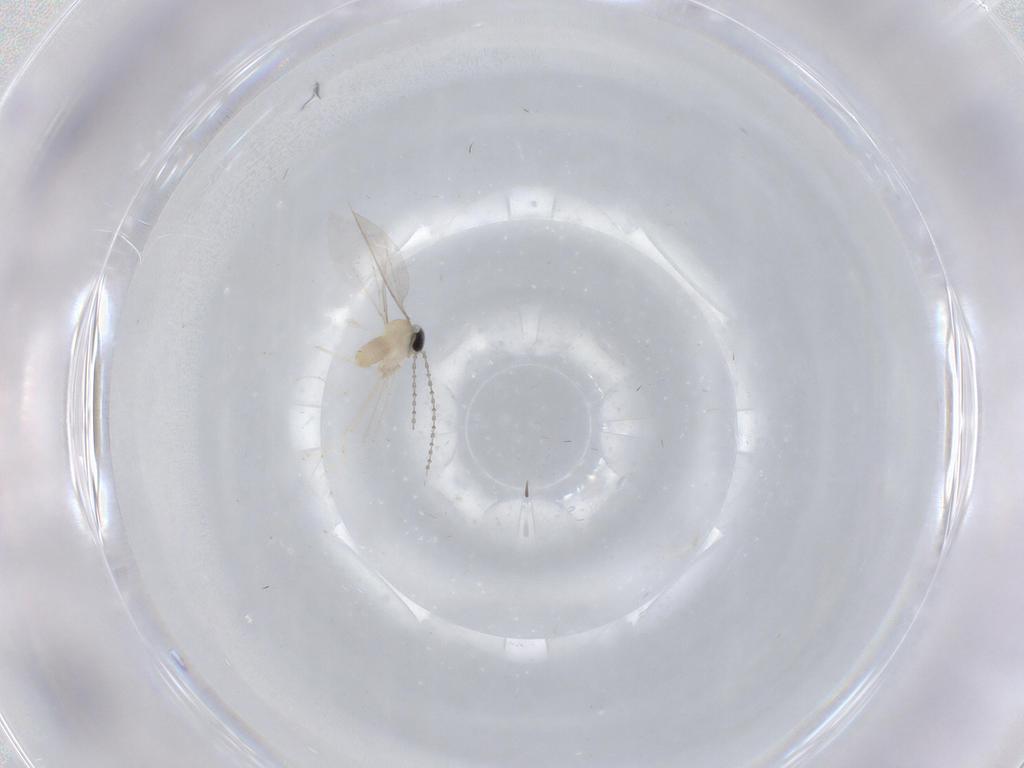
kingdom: Animalia
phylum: Arthropoda
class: Insecta
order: Diptera
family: Cecidomyiidae
